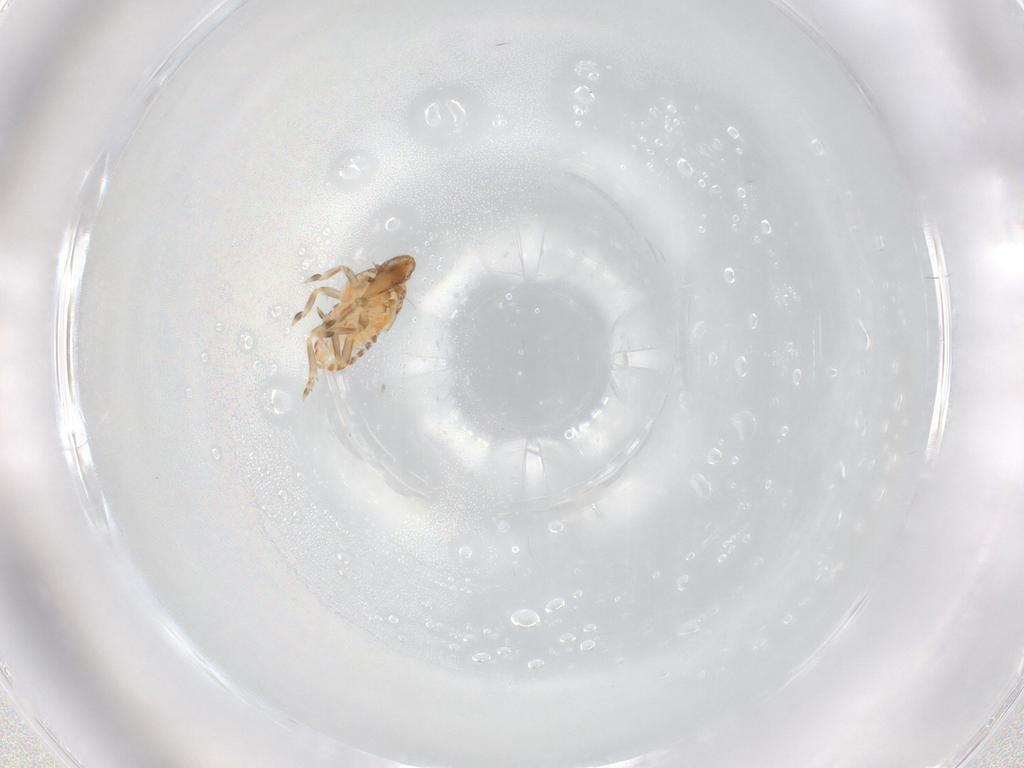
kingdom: Animalia
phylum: Arthropoda
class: Insecta
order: Hemiptera
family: Flatidae
